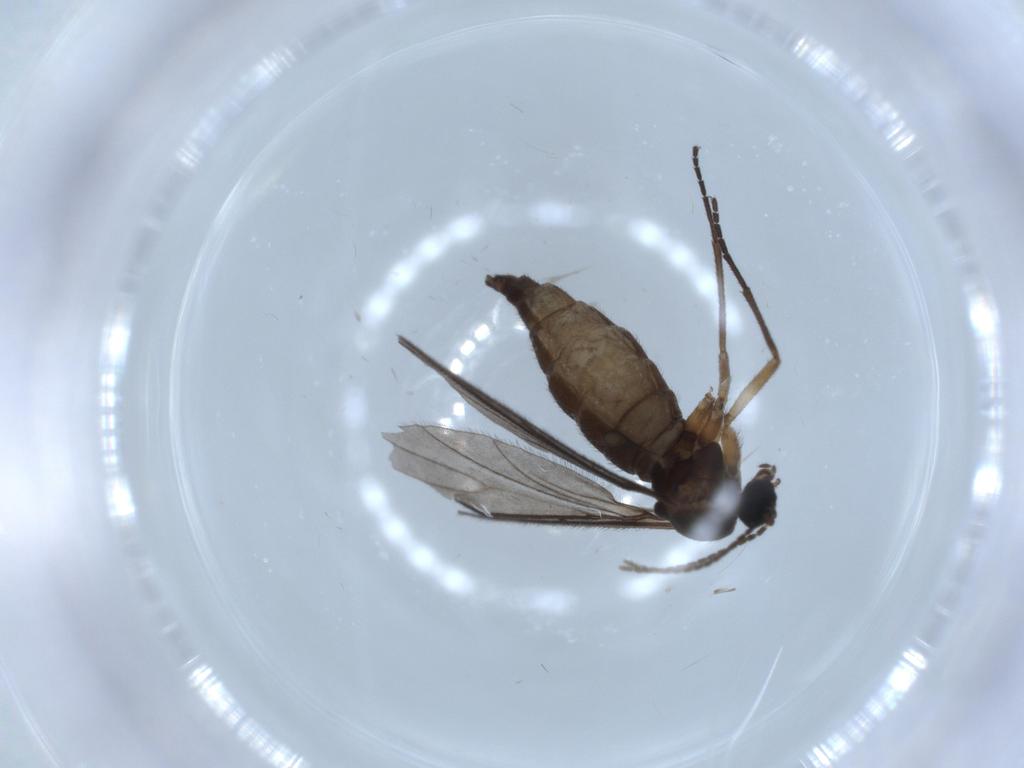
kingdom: Animalia
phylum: Arthropoda
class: Insecta
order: Diptera
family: Sciaridae
